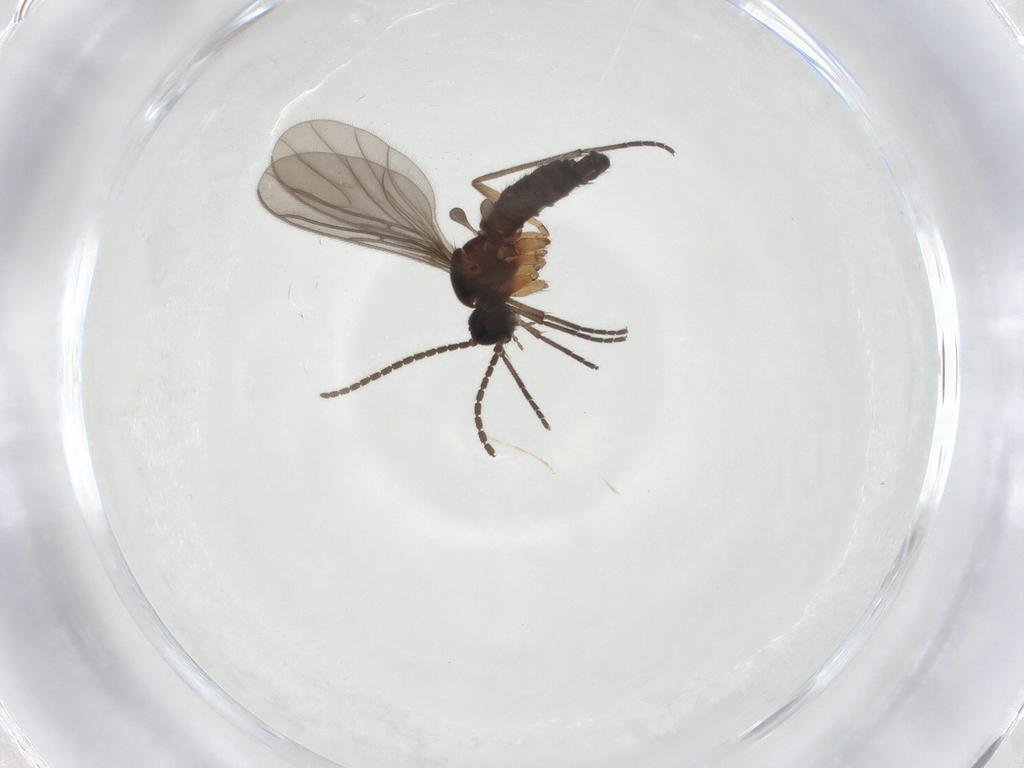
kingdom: Animalia
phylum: Arthropoda
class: Insecta
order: Diptera
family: Sciaridae
